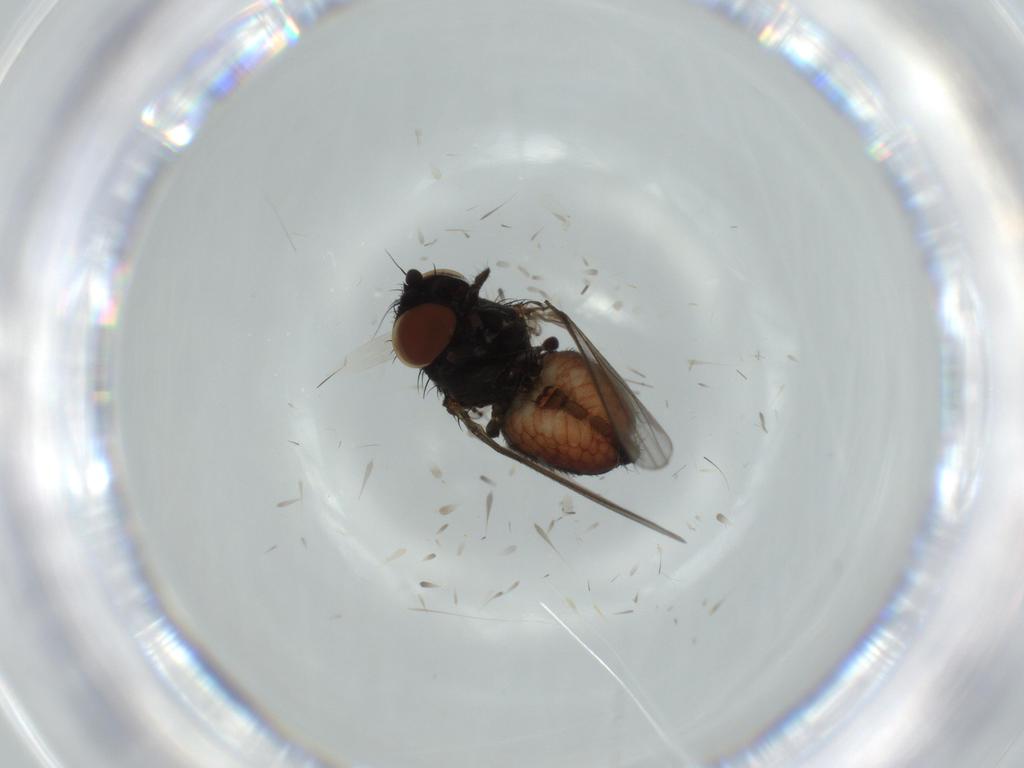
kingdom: Animalia
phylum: Arthropoda
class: Insecta
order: Diptera
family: Milichiidae
